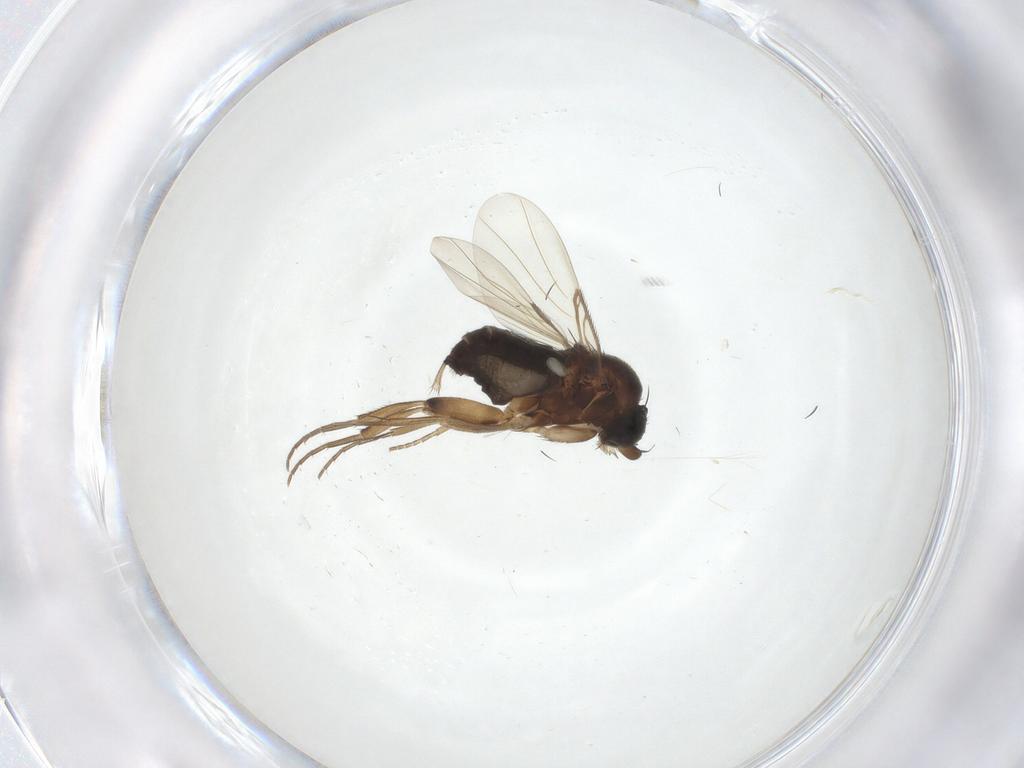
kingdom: Animalia
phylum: Arthropoda
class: Insecta
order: Diptera
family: Phoridae
